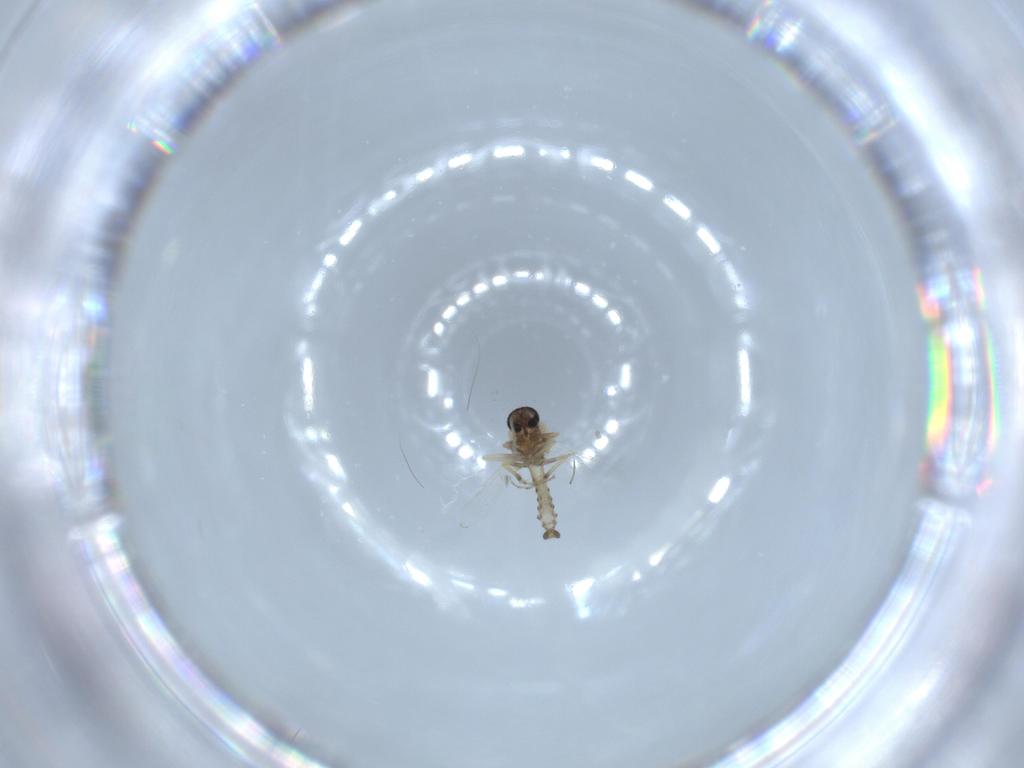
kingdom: Animalia
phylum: Arthropoda
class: Insecta
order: Diptera
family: Ceratopogonidae
